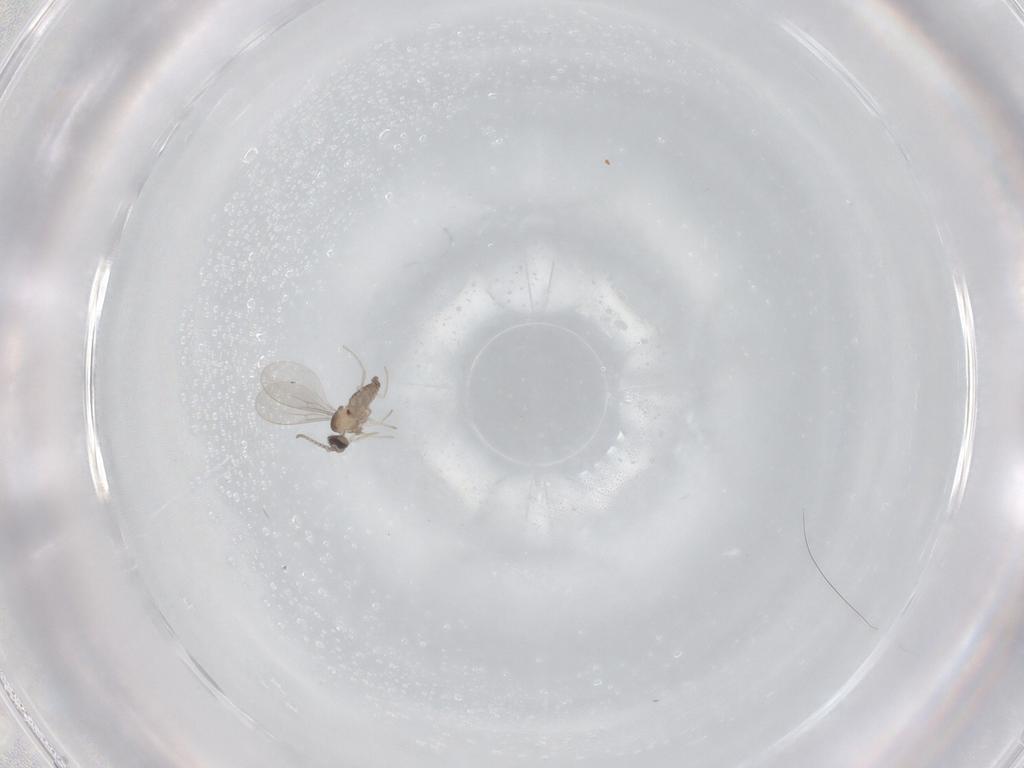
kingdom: Animalia
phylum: Arthropoda
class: Insecta
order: Diptera
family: Cecidomyiidae
